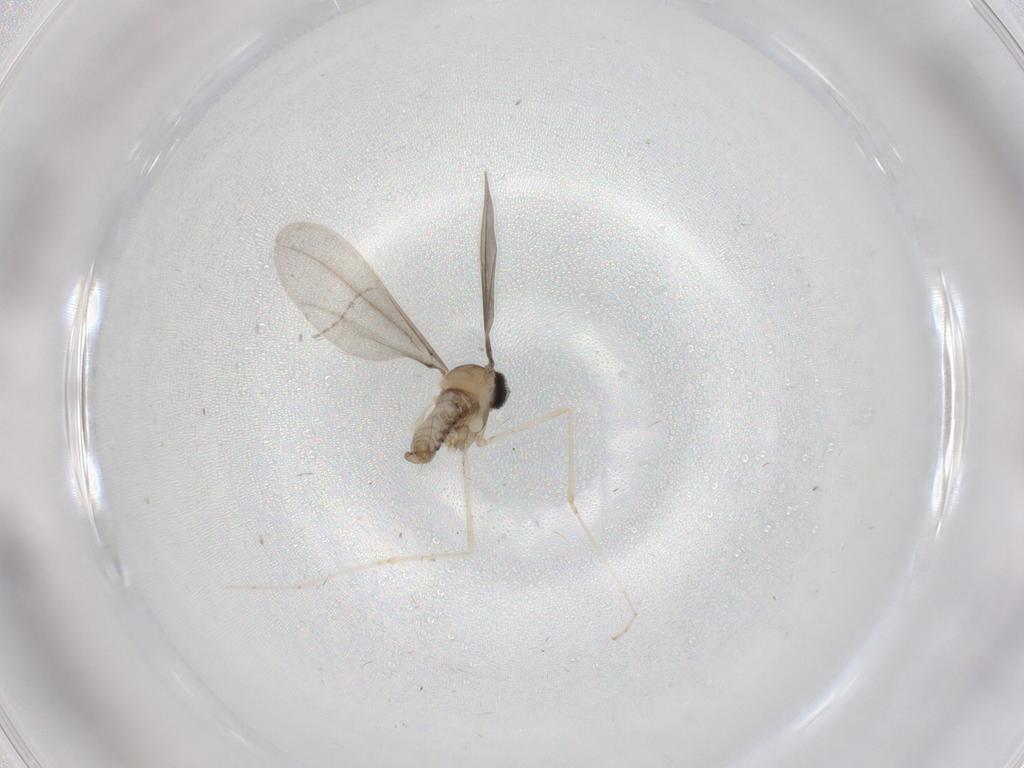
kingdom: Animalia
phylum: Arthropoda
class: Insecta
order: Diptera
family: Cecidomyiidae
